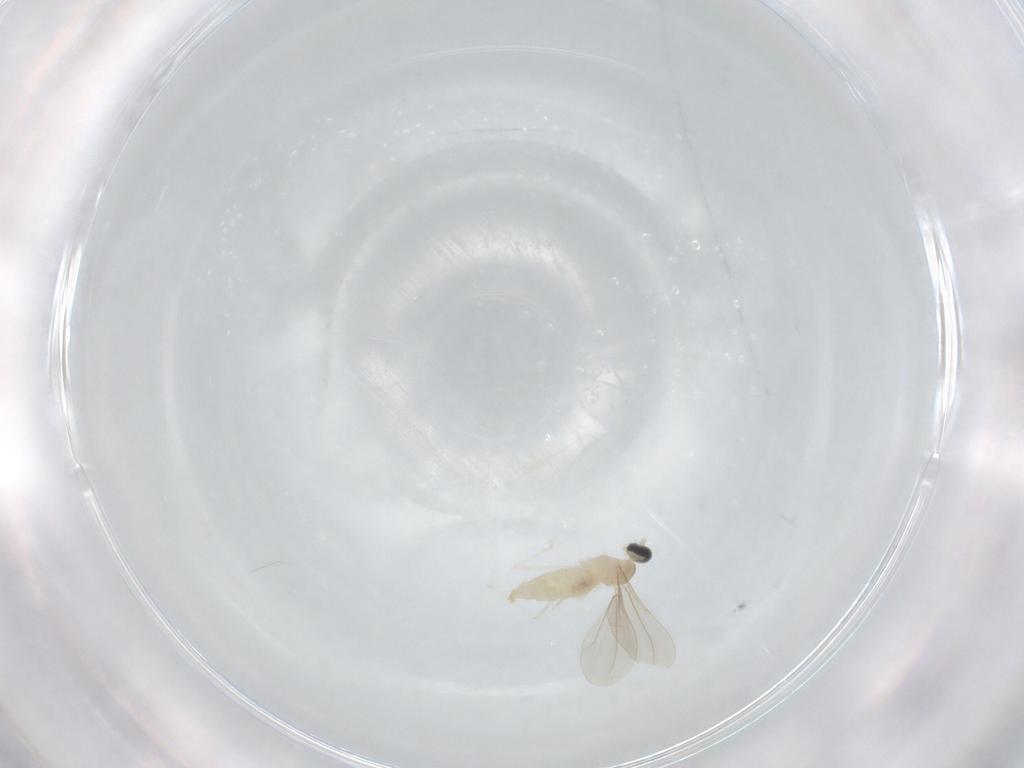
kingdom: Animalia
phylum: Arthropoda
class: Insecta
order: Diptera
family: Cecidomyiidae
